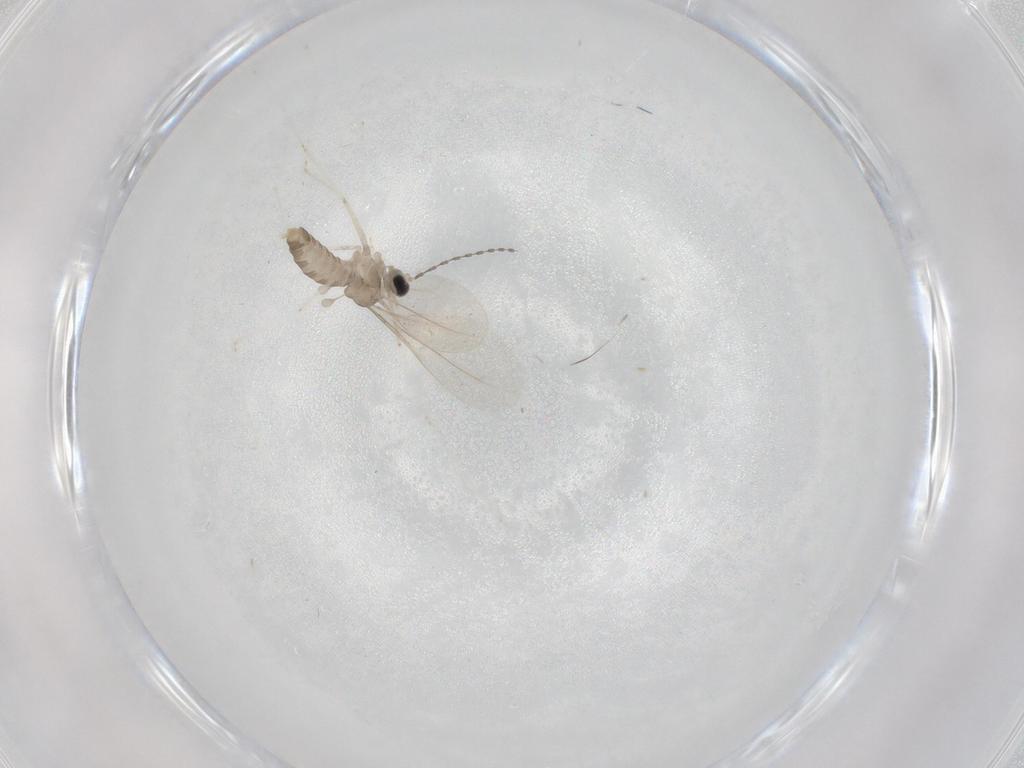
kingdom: Animalia
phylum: Arthropoda
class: Insecta
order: Diptera
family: Cecidomyiidae
